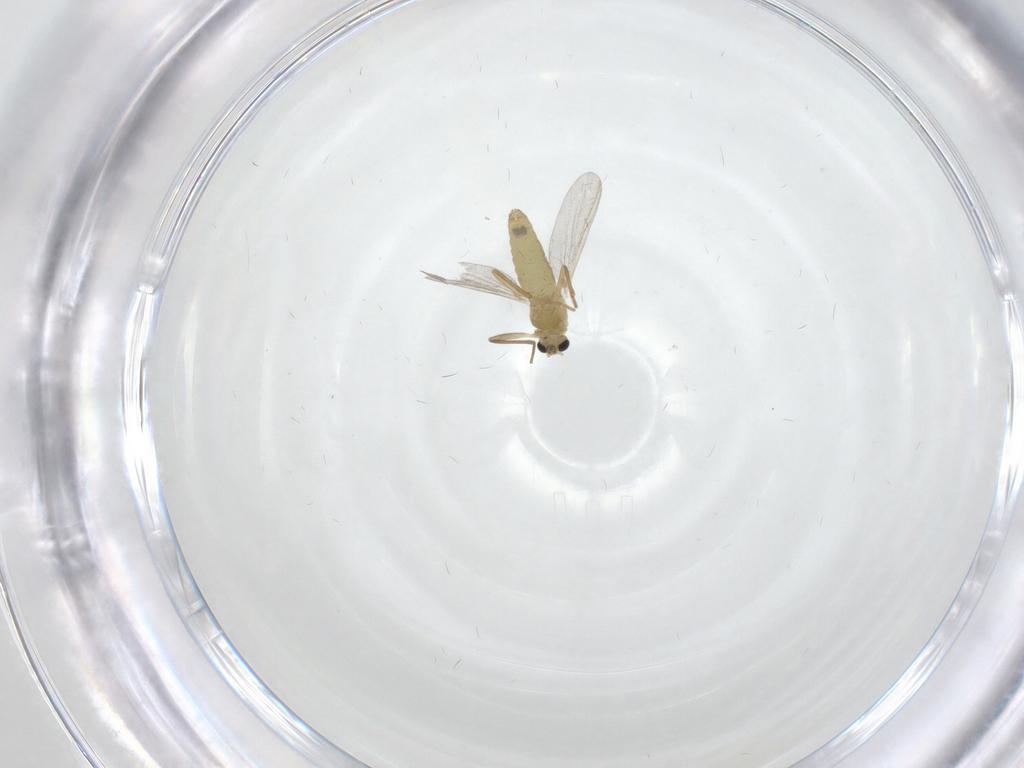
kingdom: Animalia
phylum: Arthropoda
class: Insecta
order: Diptera
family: Chironomidae
